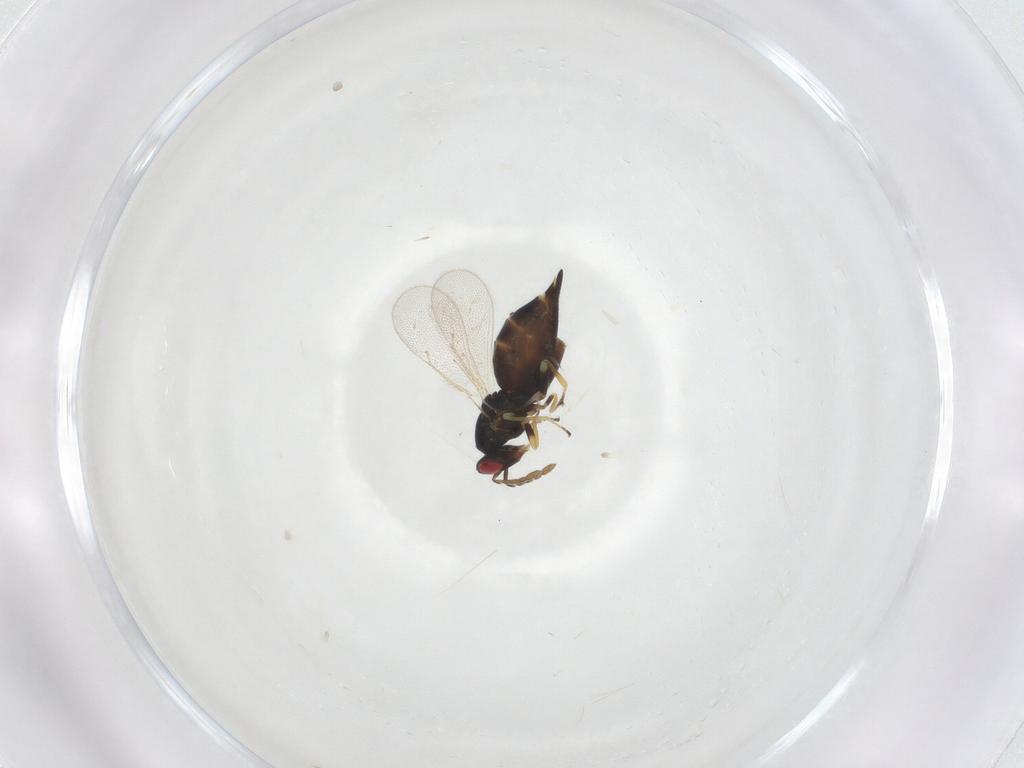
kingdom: Animalia
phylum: Arthropoda
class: Insecta
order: Hymenoptera
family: Eulophidae
